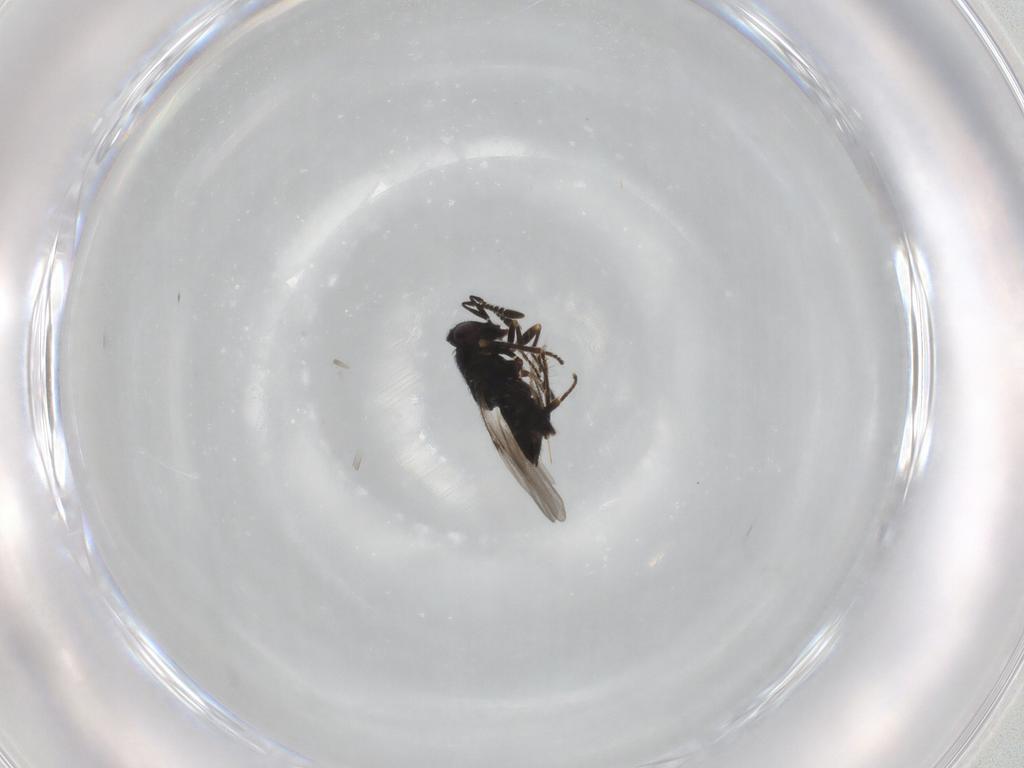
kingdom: Animalia
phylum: Arthropoda
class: Insecta
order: Hymenoptera
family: Encyrtidae
